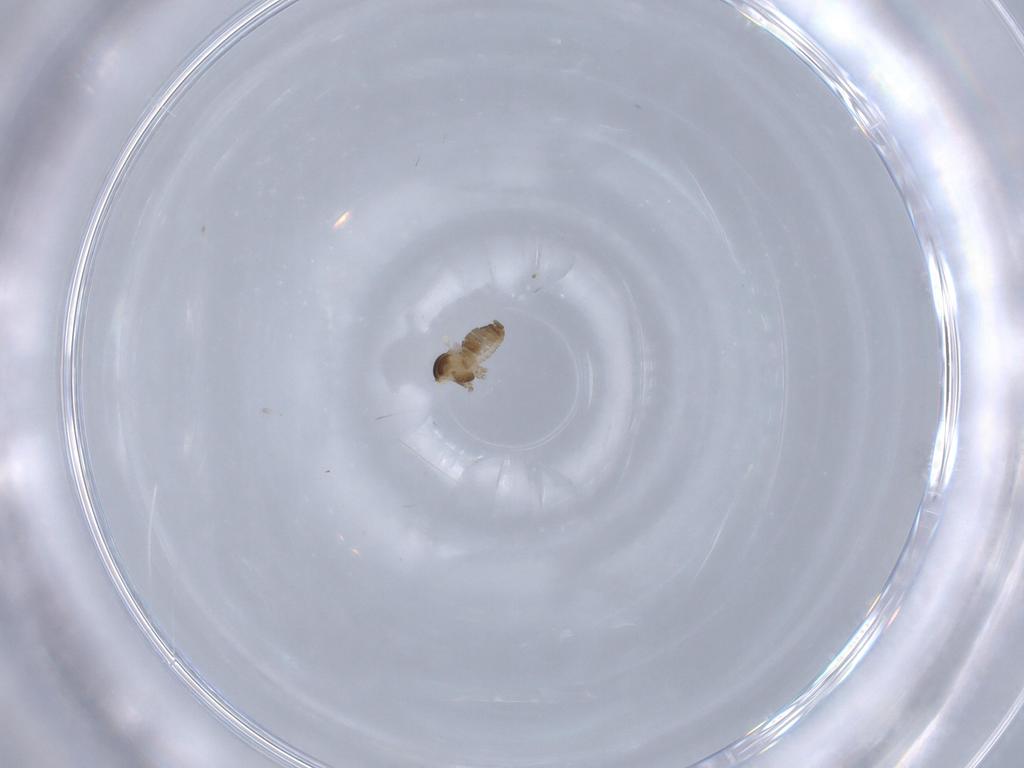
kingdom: Animalia
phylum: Arthropoda
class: Insecta
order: Diptera
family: Cecidomyiidae
